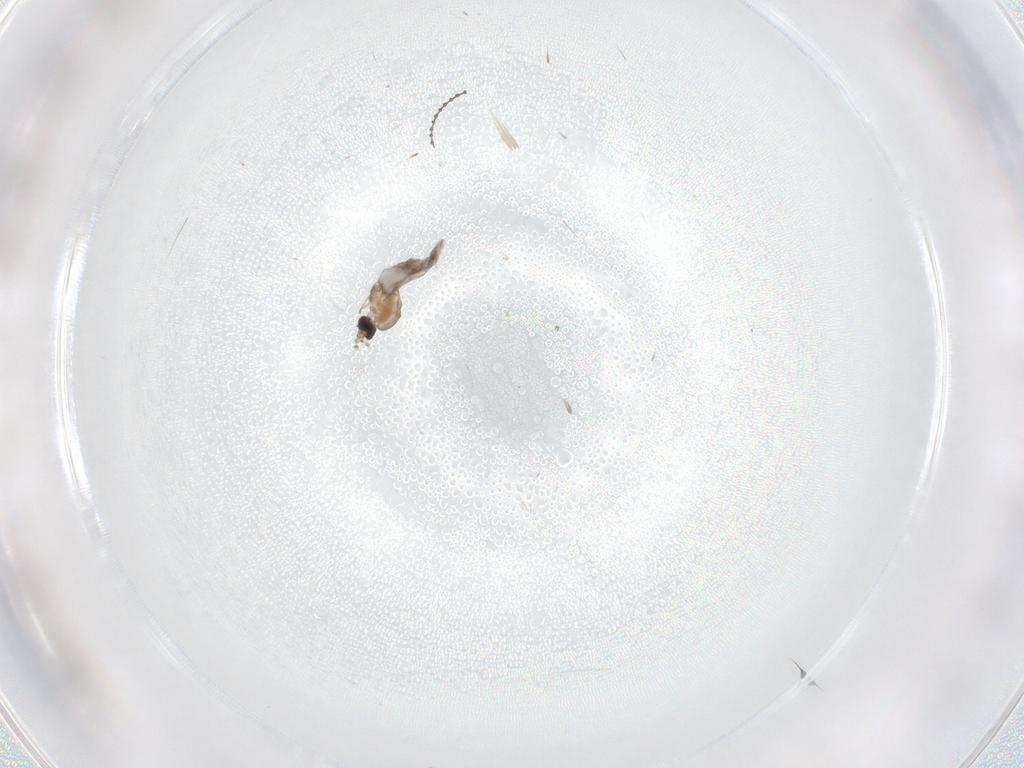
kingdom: Animalia
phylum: Arthropoda
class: Insecta
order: Diptera
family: Cecidomyiidae
